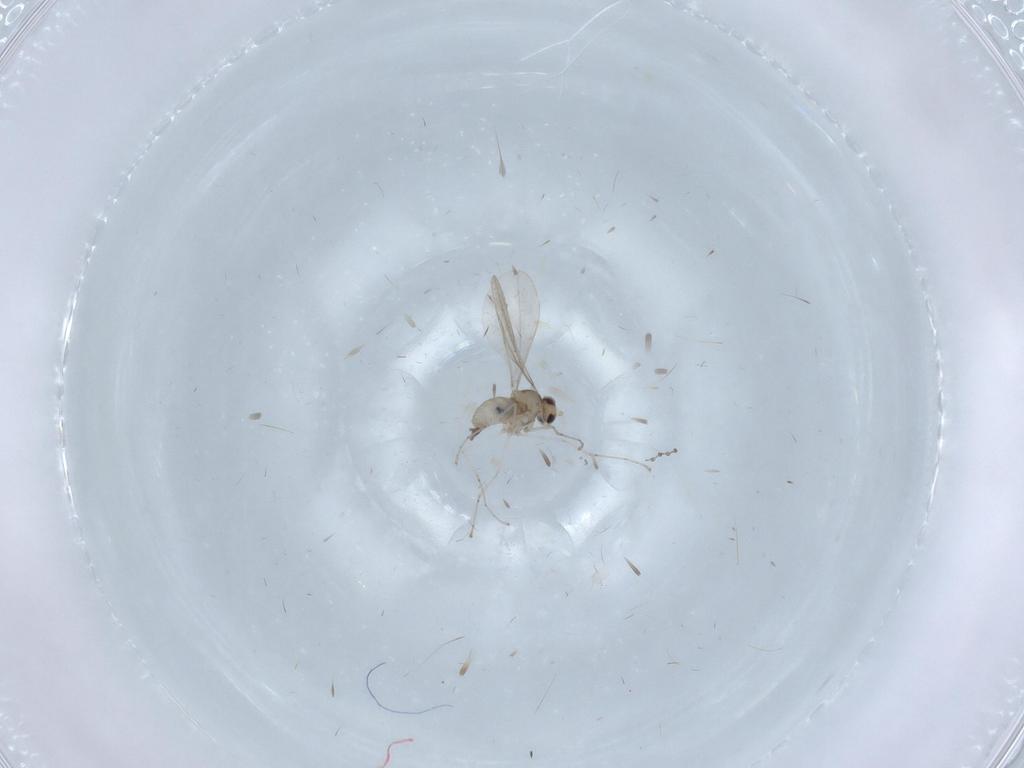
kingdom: Animalia
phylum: Arthropoda
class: Insecta
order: Diptera
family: Cecidomyiidae
